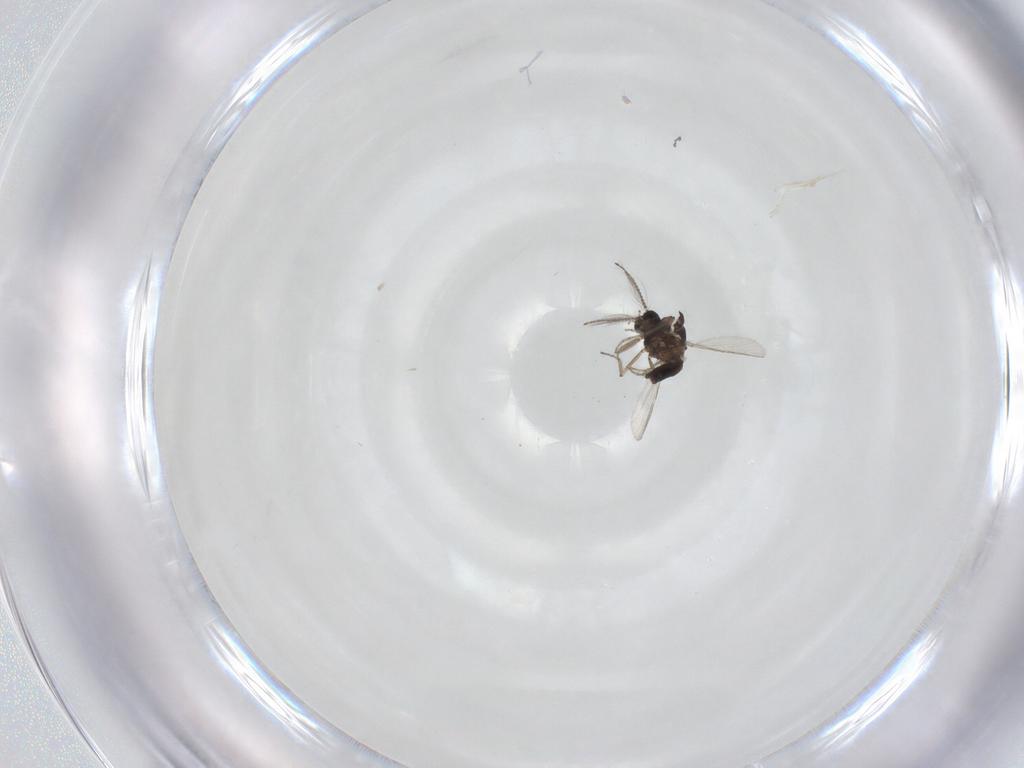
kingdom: Animalia
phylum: Arthropoda
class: Insecta
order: Diptera
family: Ceratopogonidae
